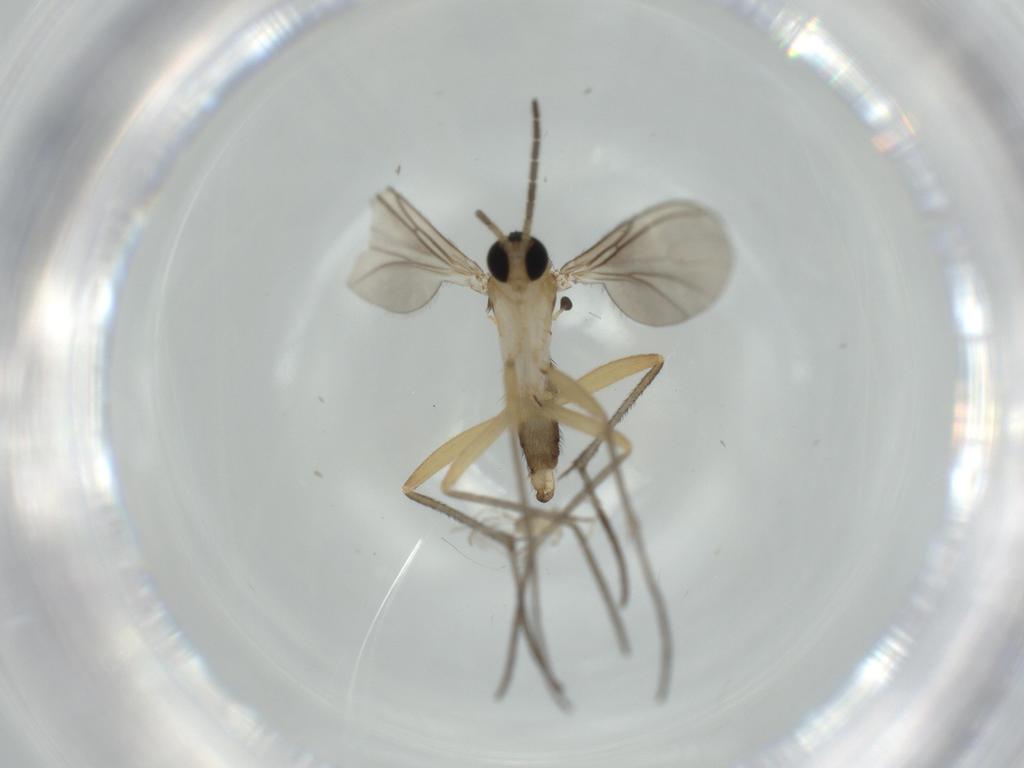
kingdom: Animalia
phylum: Arthropoda
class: Insecta
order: Diptera
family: Sciaridae
